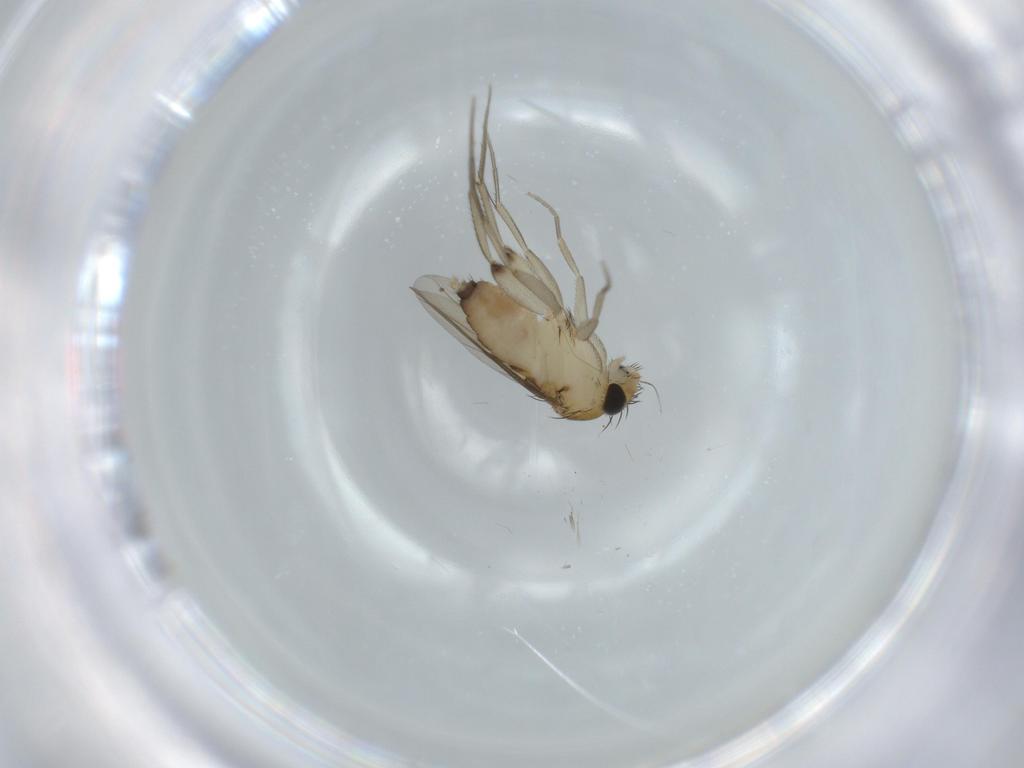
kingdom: Animalia
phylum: Arthropoda
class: Insecta
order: Diptera
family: Phoridae
